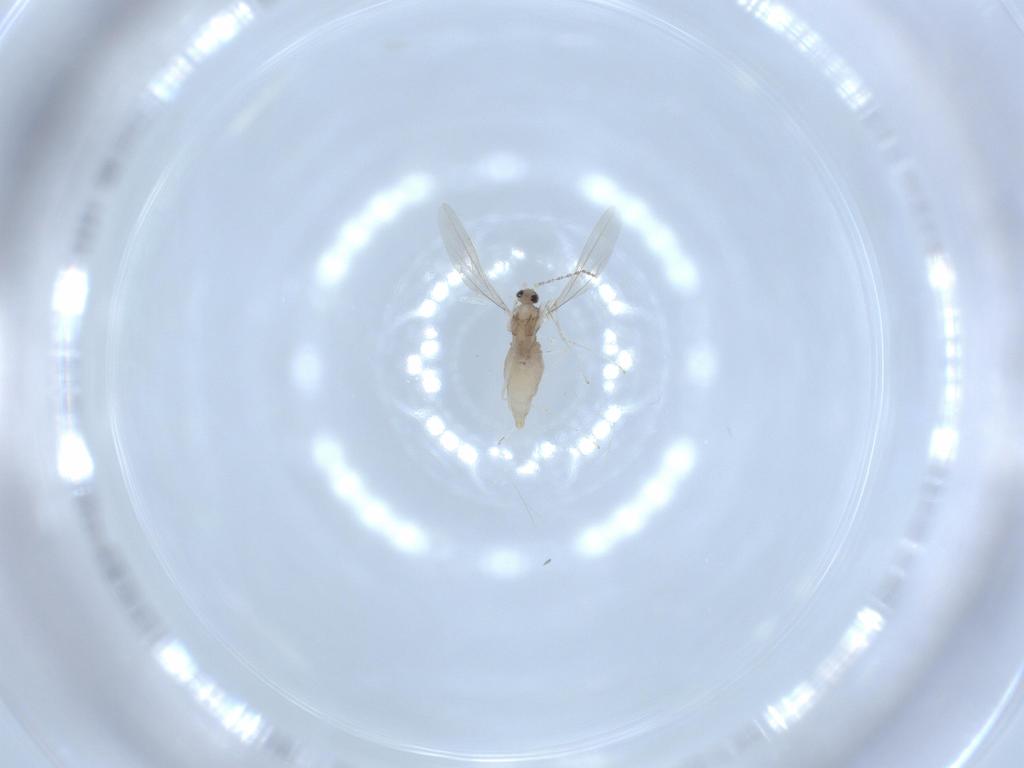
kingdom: Animalia
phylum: Arthropoda
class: Insecta
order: Diptera
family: Cecidomyiidae
